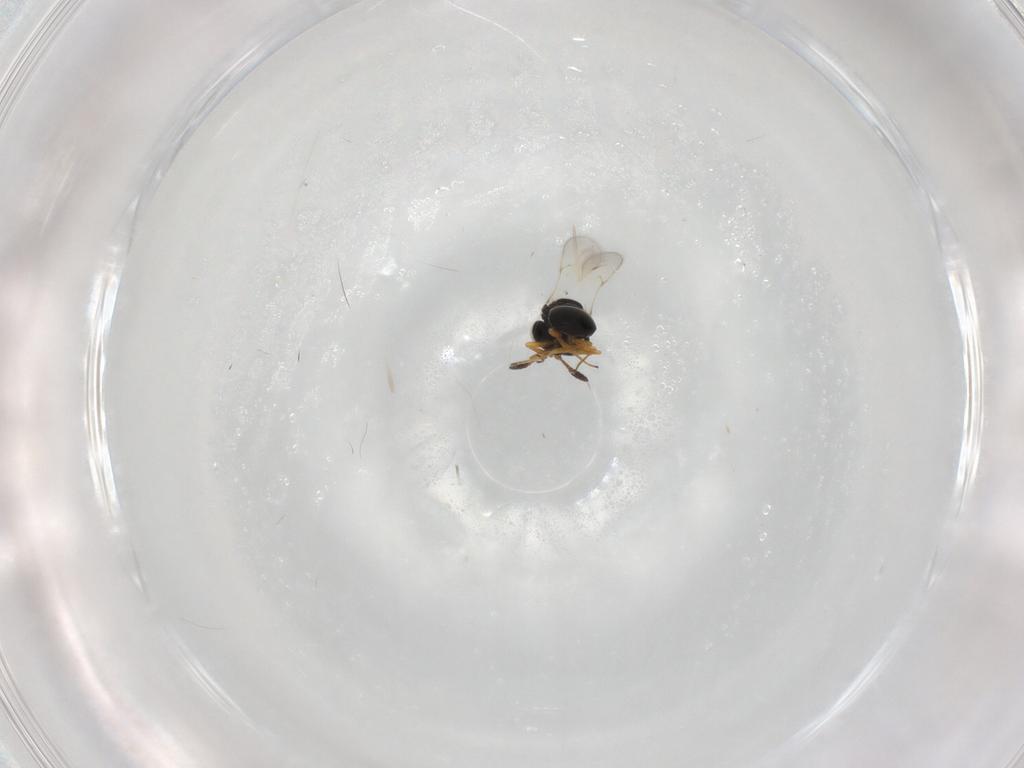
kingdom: Animalia
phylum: Arthropoda
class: Insecta
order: Hymenoptera
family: Scelionidae
